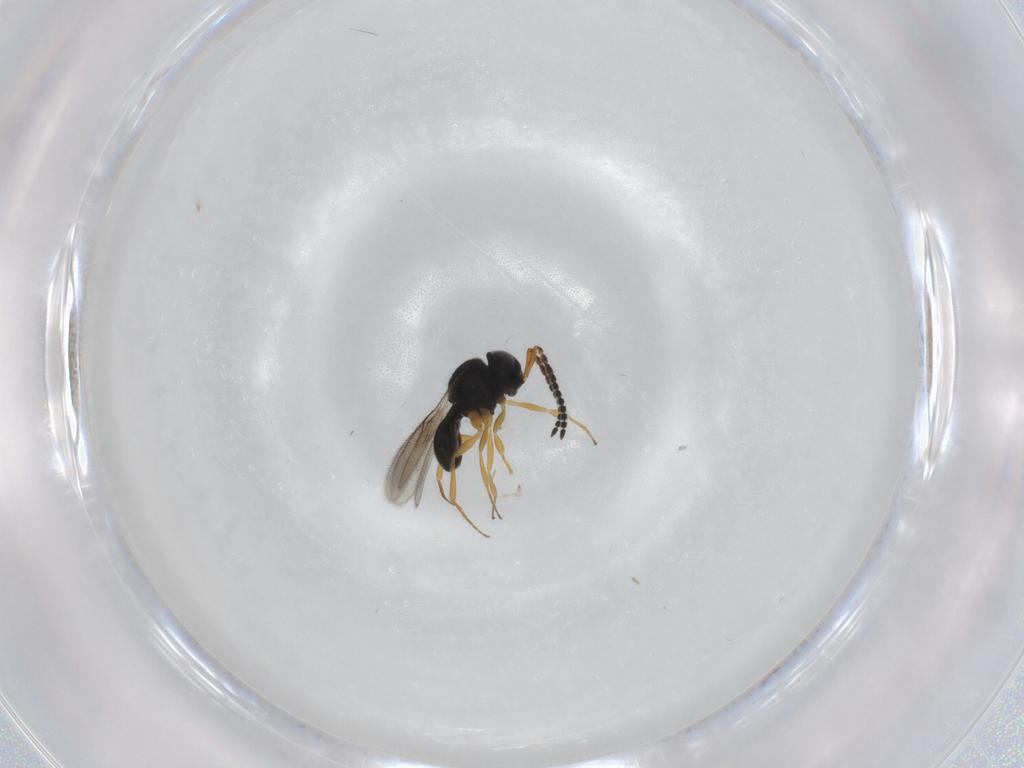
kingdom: Animalia
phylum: Arthropoda
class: Insecta
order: Hymenoptera
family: Scelionidae
